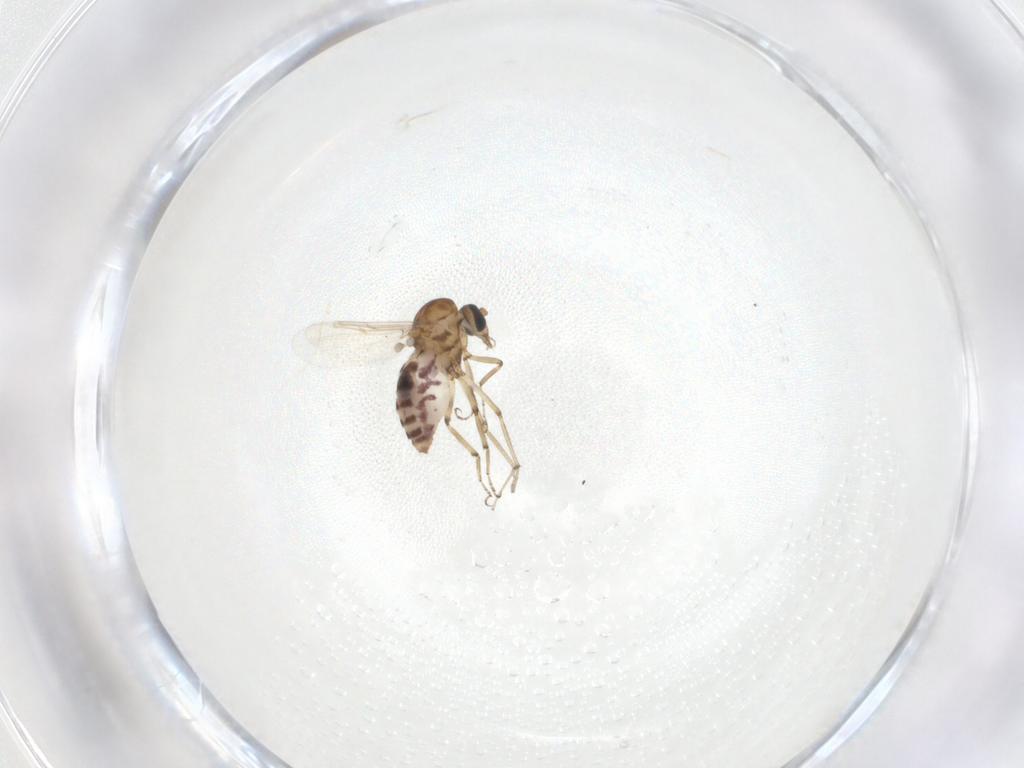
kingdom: Animalia
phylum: Arthropoda
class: Insecta
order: Diptera
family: Ceratopogonidae
